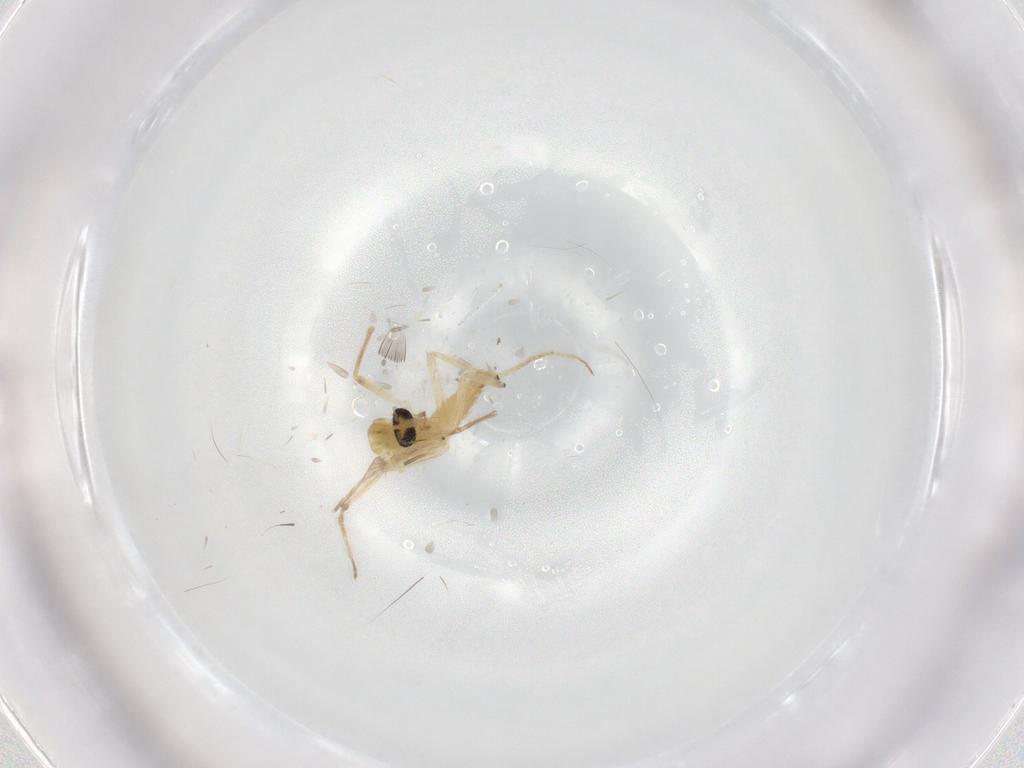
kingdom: Animalia
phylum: Arthropoda
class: Insecta
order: Diptera
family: Chironomidae
